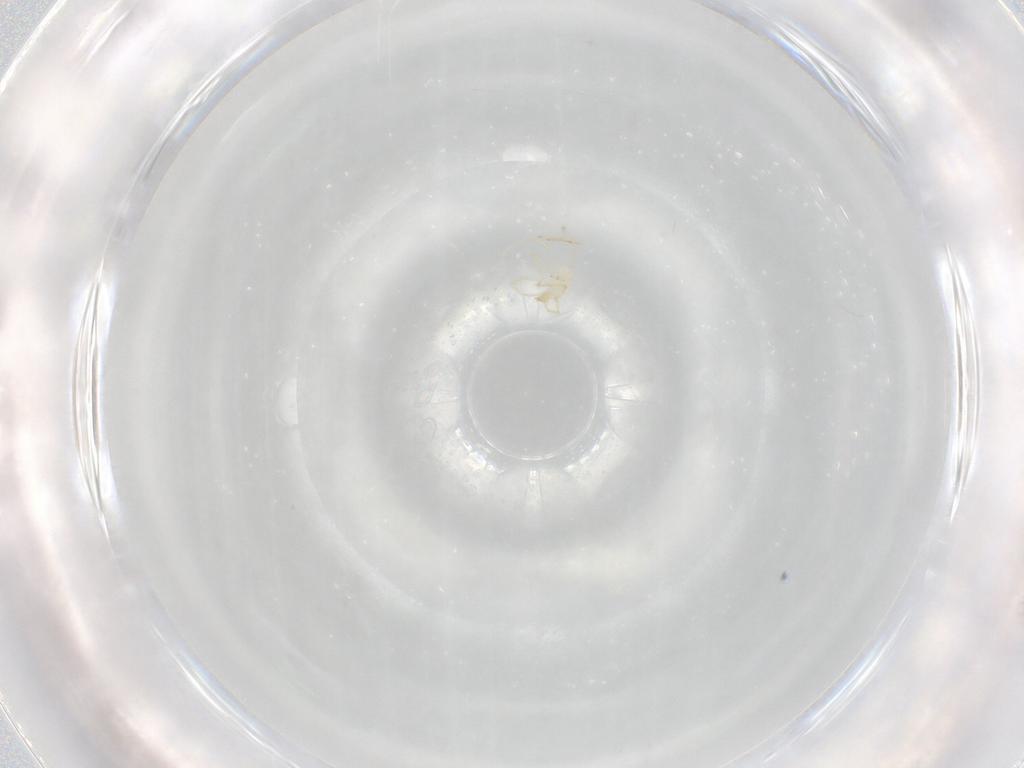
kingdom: Animalia
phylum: Arthropoda
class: Arachnida
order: Trombidiformes
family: Erythraeidae
